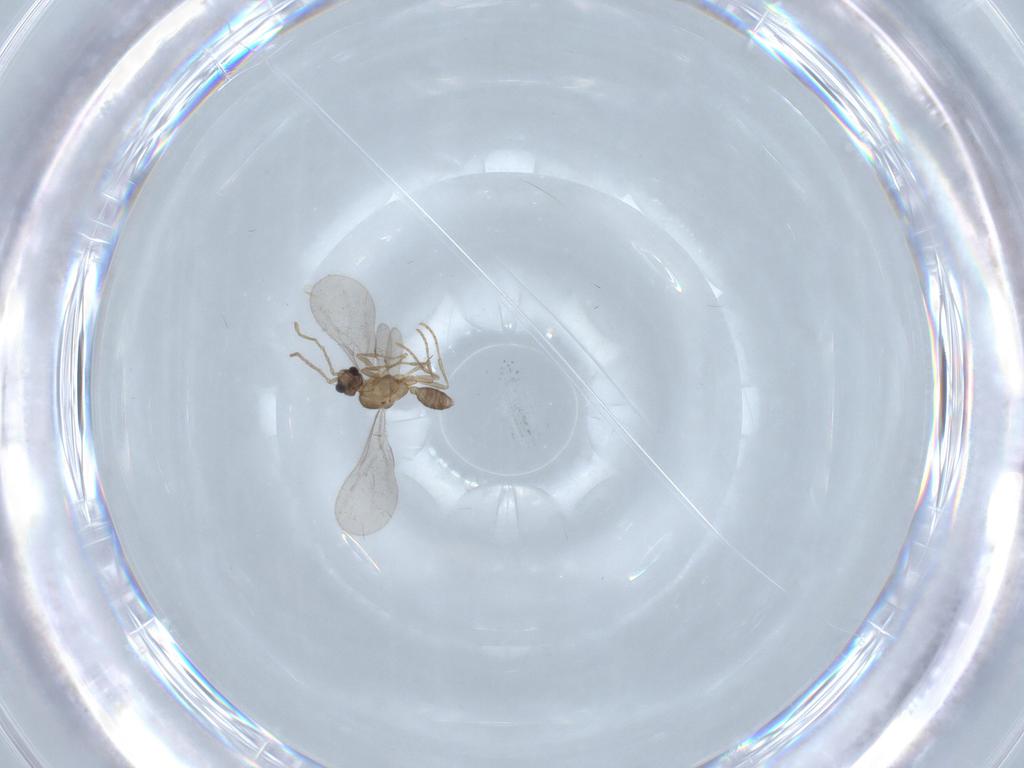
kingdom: Animalia
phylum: Arthropoda
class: Insecta
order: Hymenoptera
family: Formicidae
